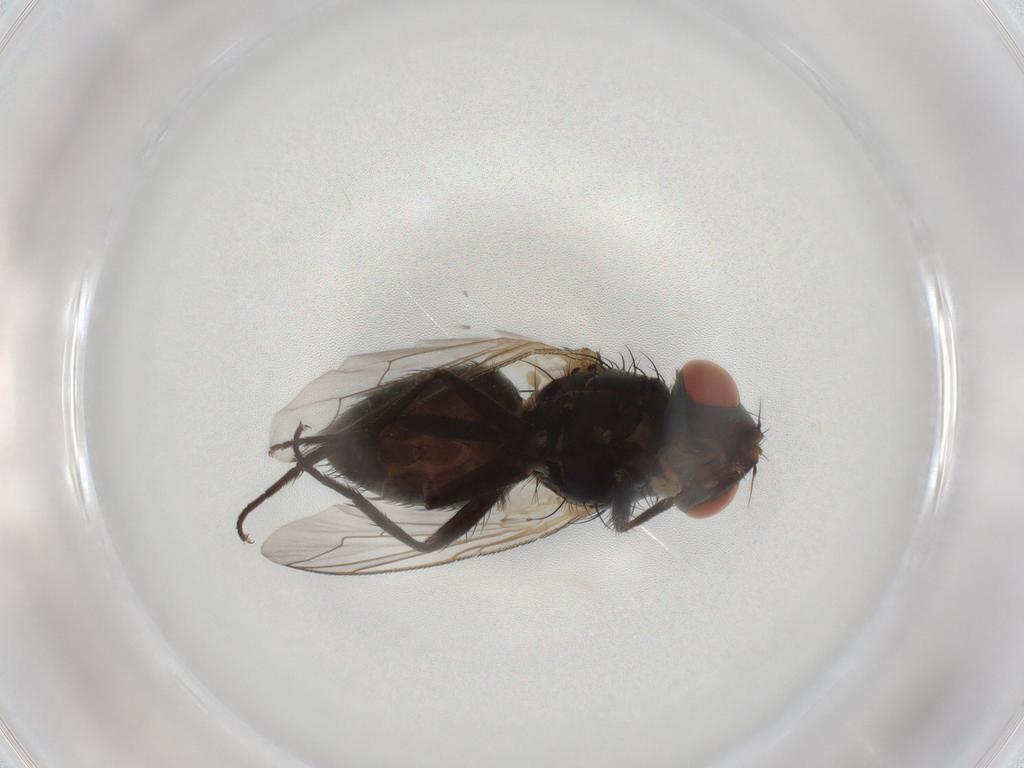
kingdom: Animalia
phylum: Arthropoda
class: Insecta
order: Diptera
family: Sarcophagidae
